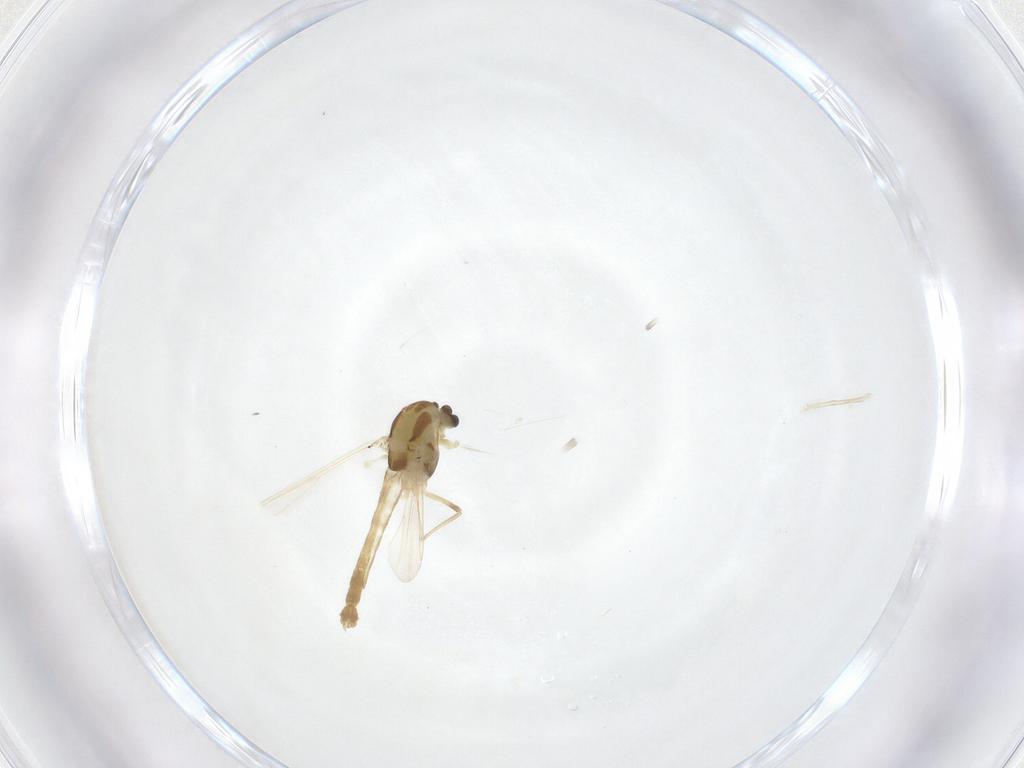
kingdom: Animalia
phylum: Arthropoda
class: Insecta
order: Diptera
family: Chironomidae
